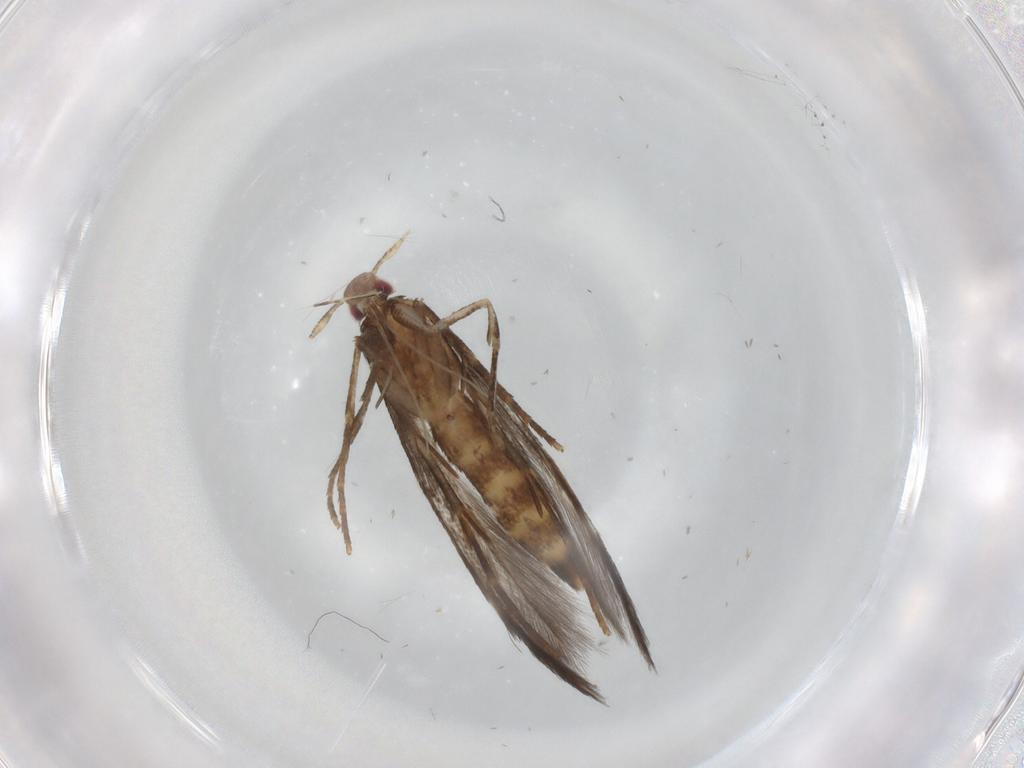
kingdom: Animalia
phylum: Arthropoda
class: Insecta
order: Lepidoptera
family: Cosmopterigidae
